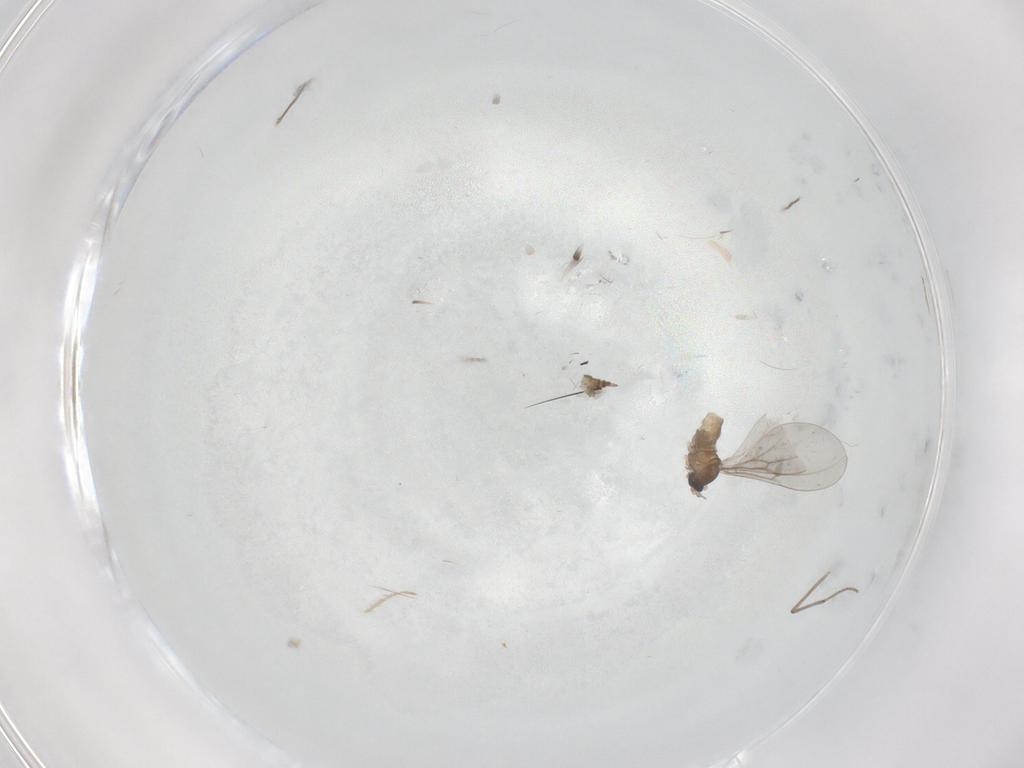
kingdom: Animalia
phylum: Arthropoda
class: Insecta
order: Diptera
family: Cecidomyiidae
